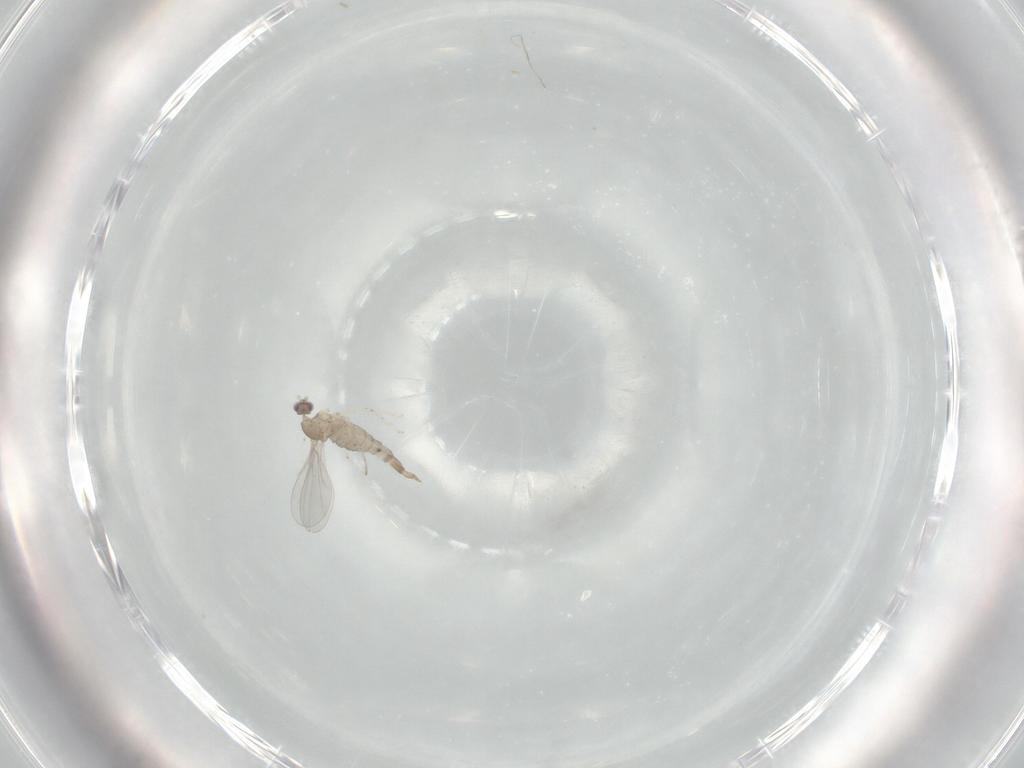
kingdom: Animalia
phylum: Arthropoda
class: Insecta
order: Diptera
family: Cecidomyiidae
